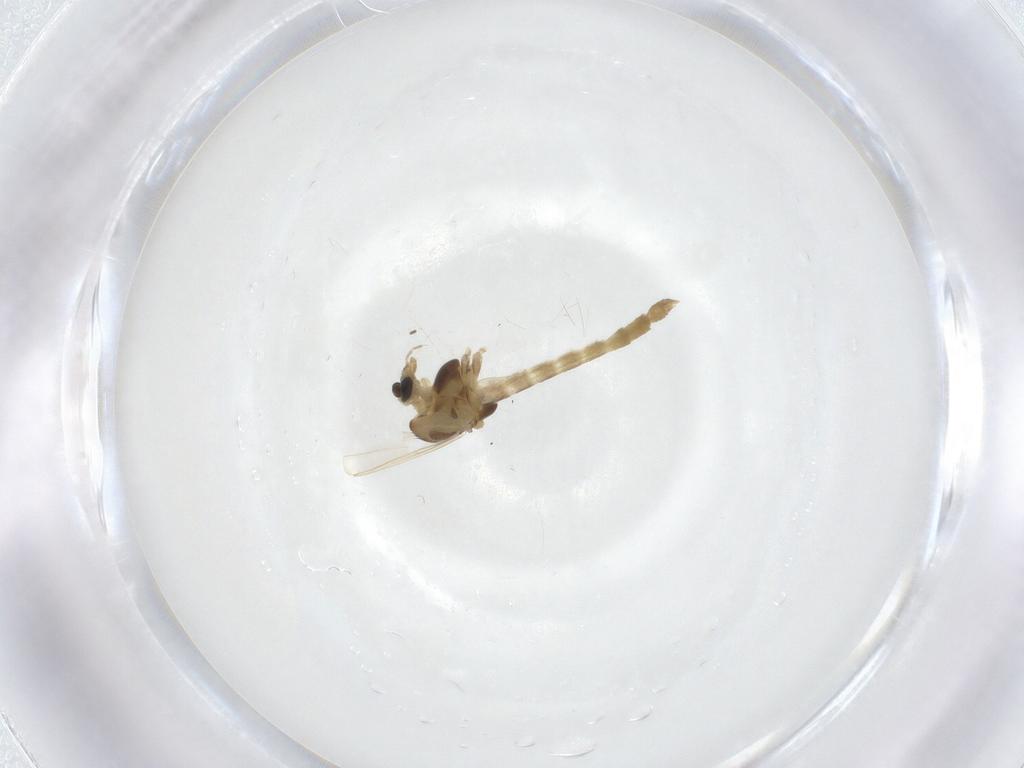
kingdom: Animalia
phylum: Arthropoda
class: Insecta
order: Diptera
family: Chironomidae
